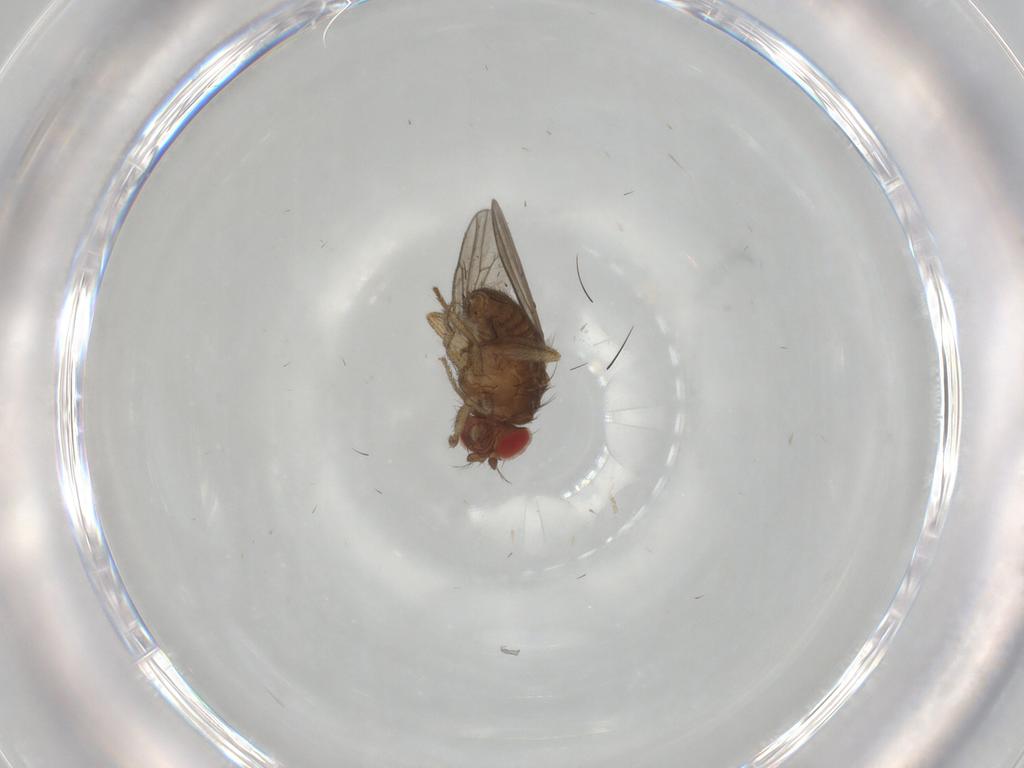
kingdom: Animalia
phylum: Arthropoda
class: Insecta
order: Diptera
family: Drosophilidae
